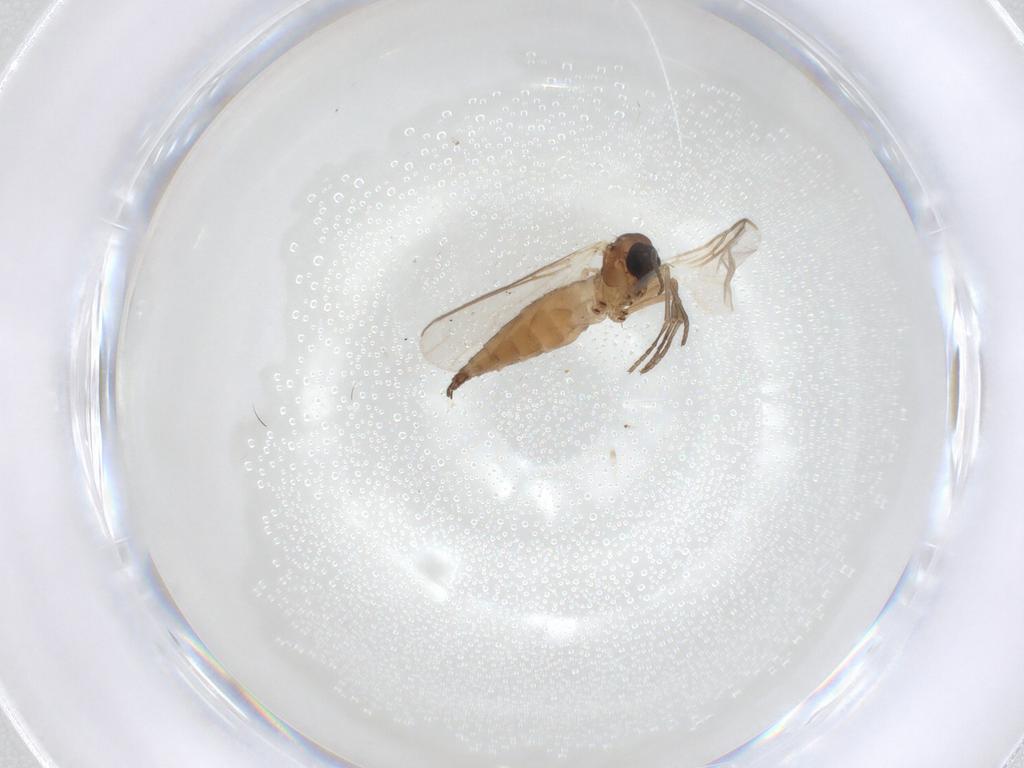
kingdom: Animalia
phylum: Arthropoda
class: Insecta
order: Diptera
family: Sciaridae
